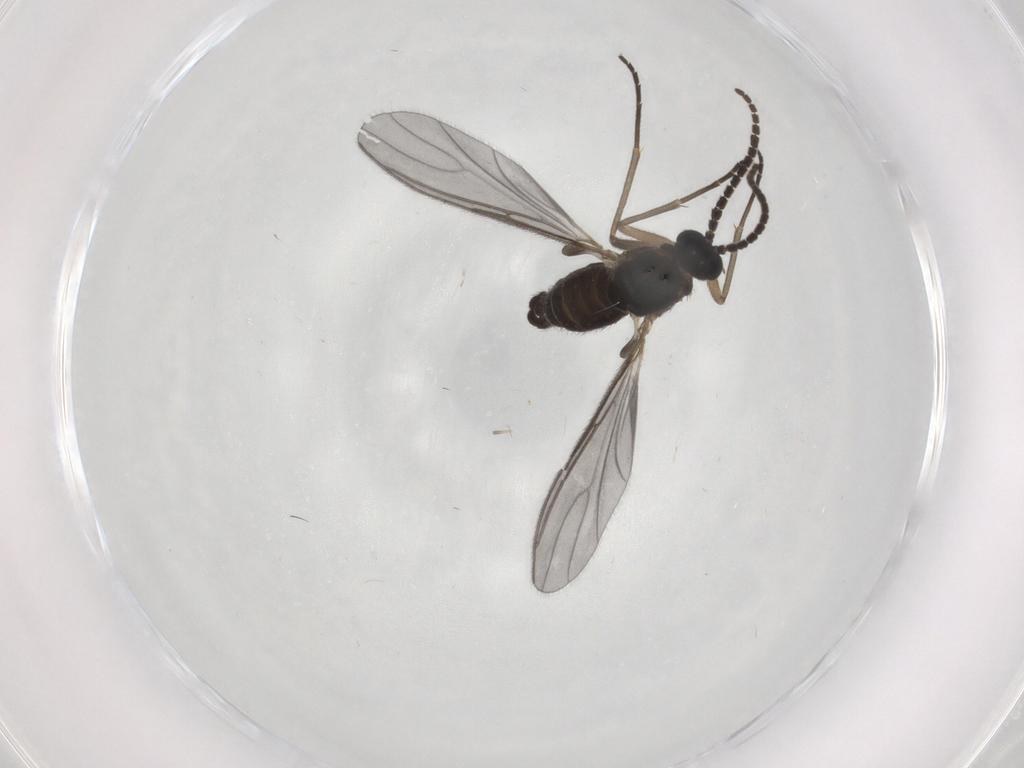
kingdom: Animalia
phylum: Arthropoda
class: Insecta
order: Diptera
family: Sciaridae
